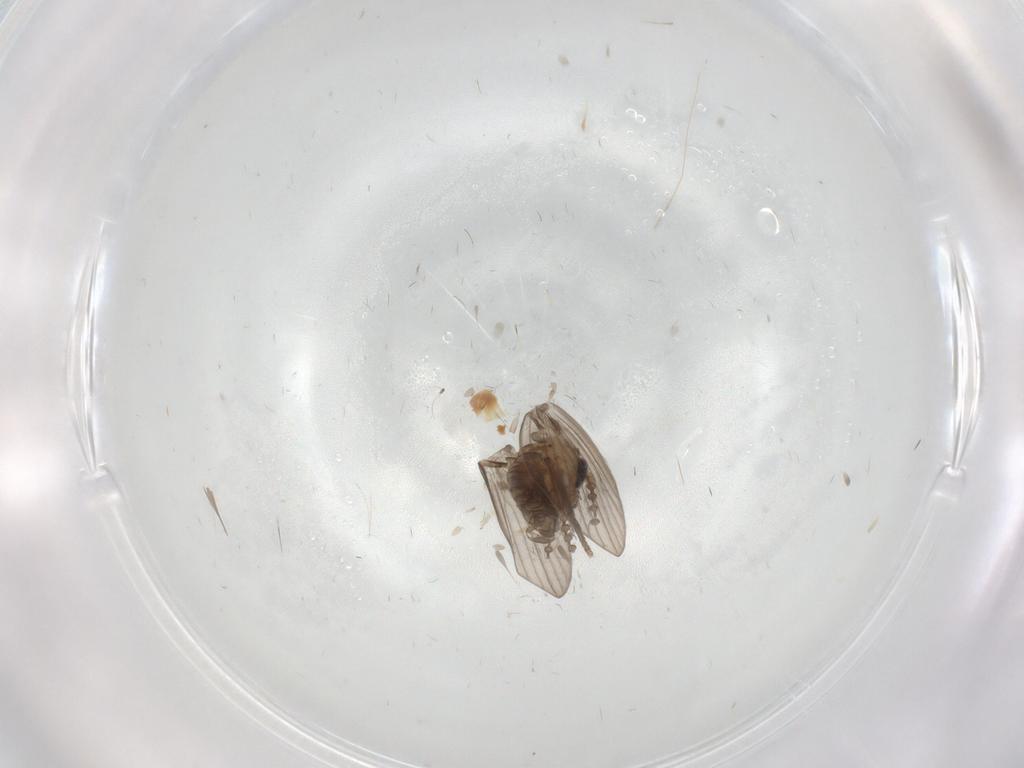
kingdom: Animalia
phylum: Arthropoda
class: Insecta
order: Diptera
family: Psychodidae
